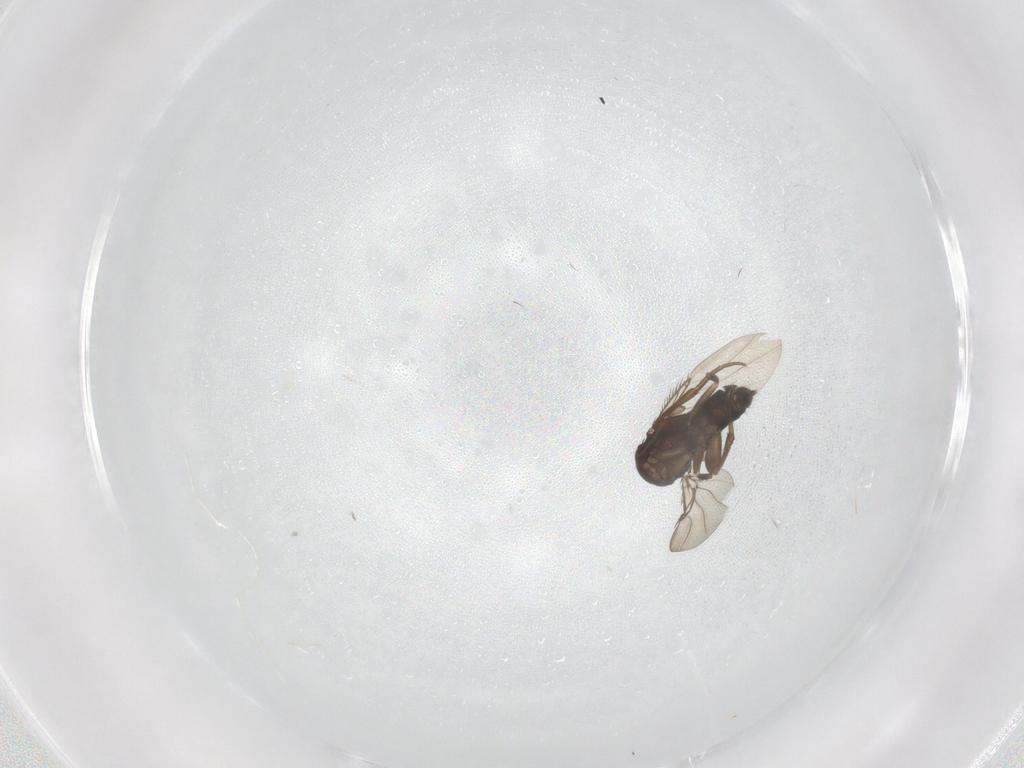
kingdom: Animalia
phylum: Arthropoda
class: Insecta
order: Diptera
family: Phoridae
